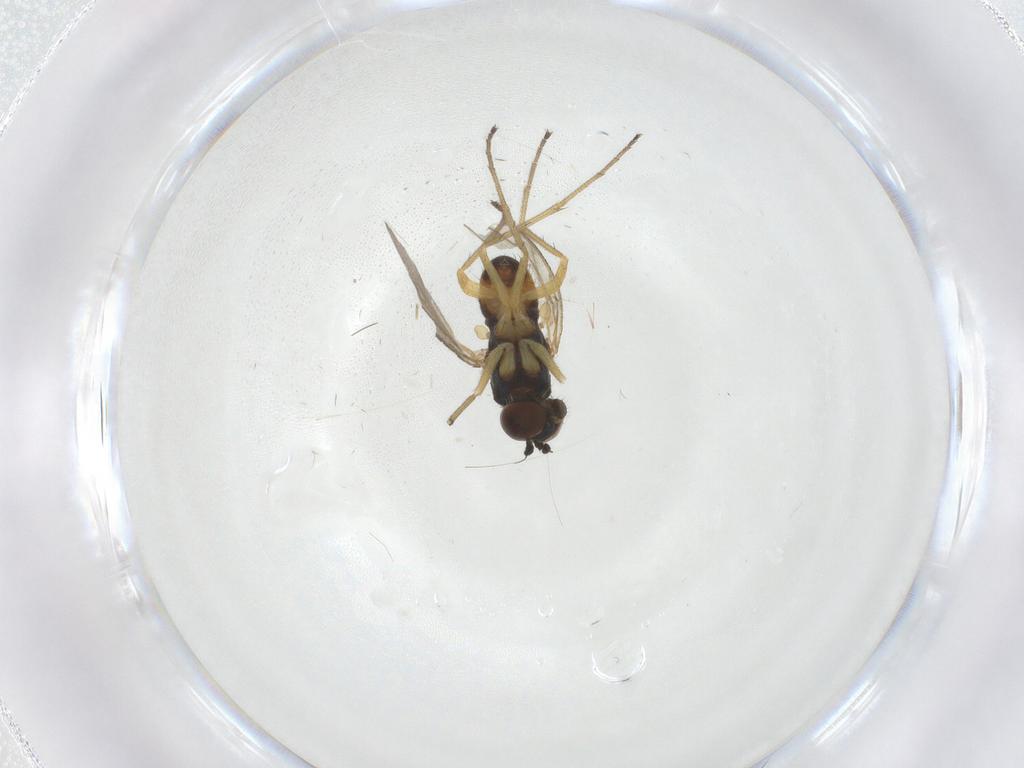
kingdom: Animalia
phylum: Arthropoda
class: Insecta
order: Diptera
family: Dolichopodidae
